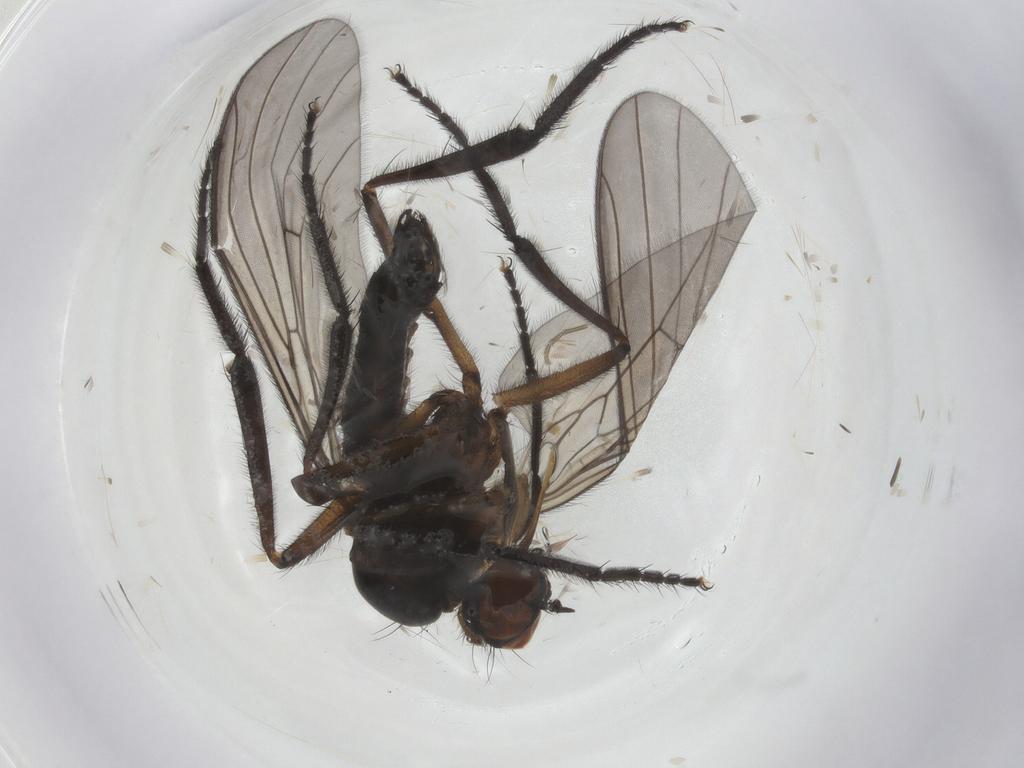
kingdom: Animalia
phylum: Arthropoda
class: Insecta
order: Diptera
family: Empididae
